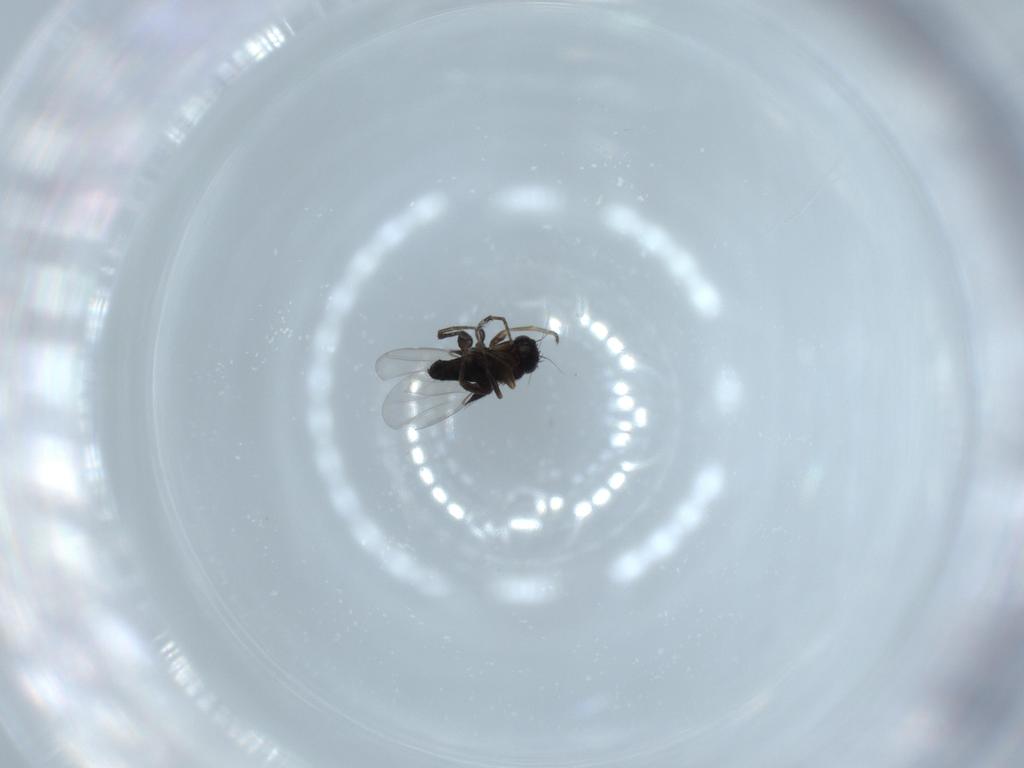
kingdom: Animalia
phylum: Arthropoda
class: Insecta
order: Diptera
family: Phoridae
